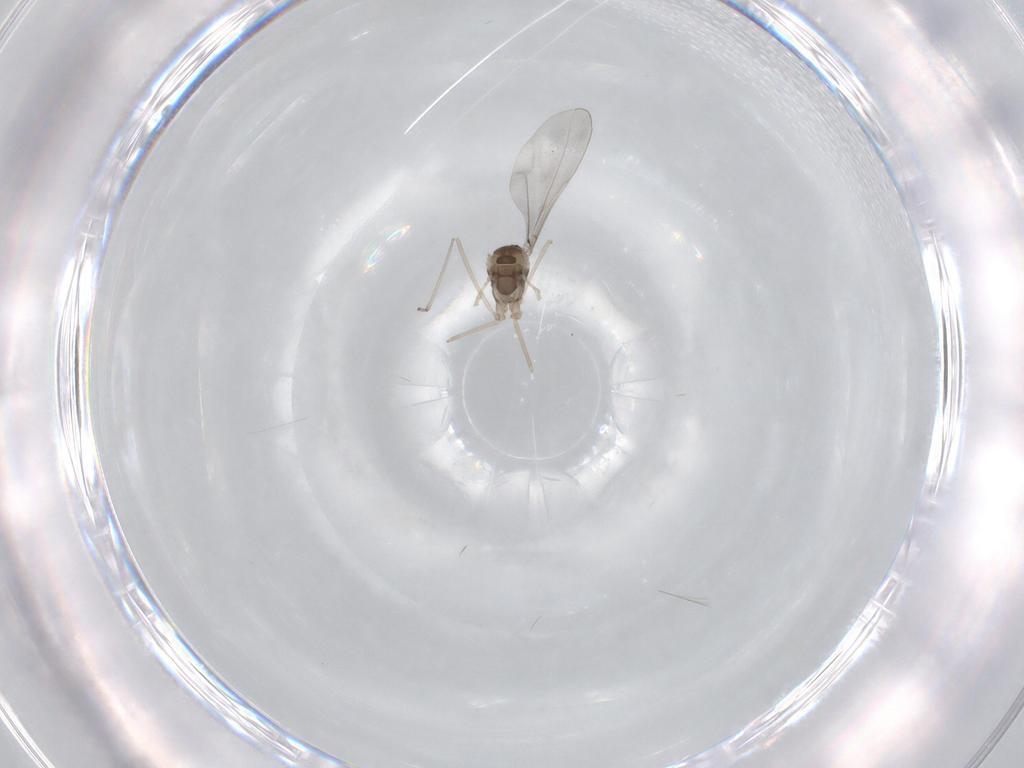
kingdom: Animalia
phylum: Arthropoda
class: Insecta
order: Diptera
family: Cecidomyiidae
